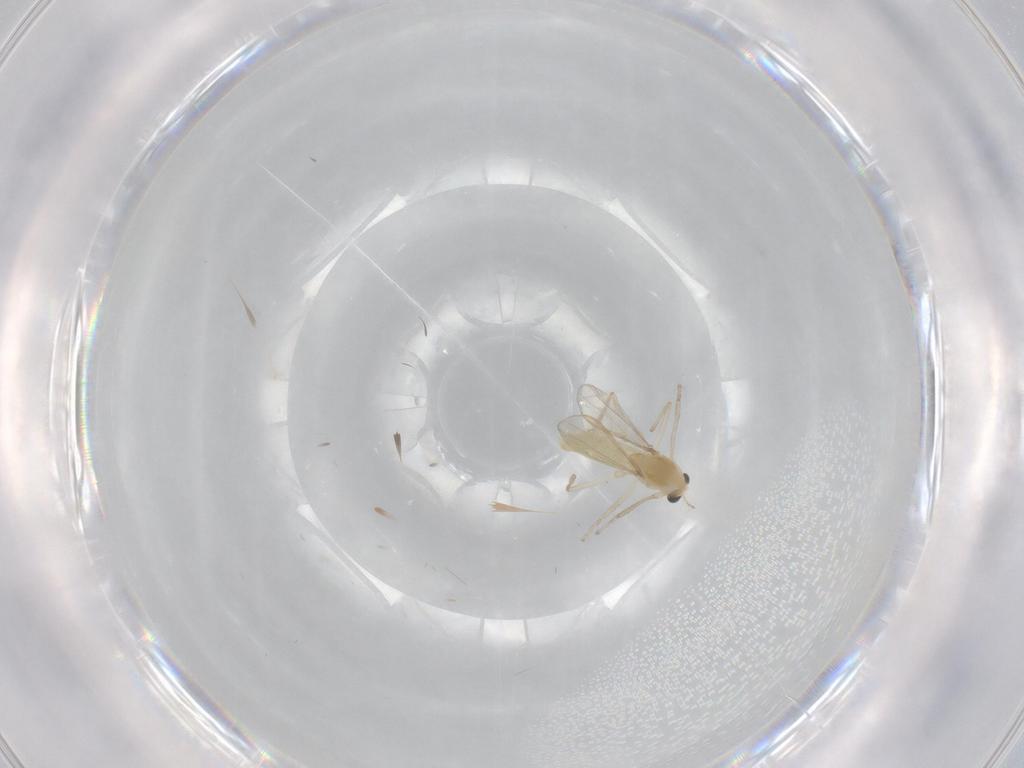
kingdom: Animalia
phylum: Arthropoda
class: Insecta
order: Diptera
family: Chironomidae
